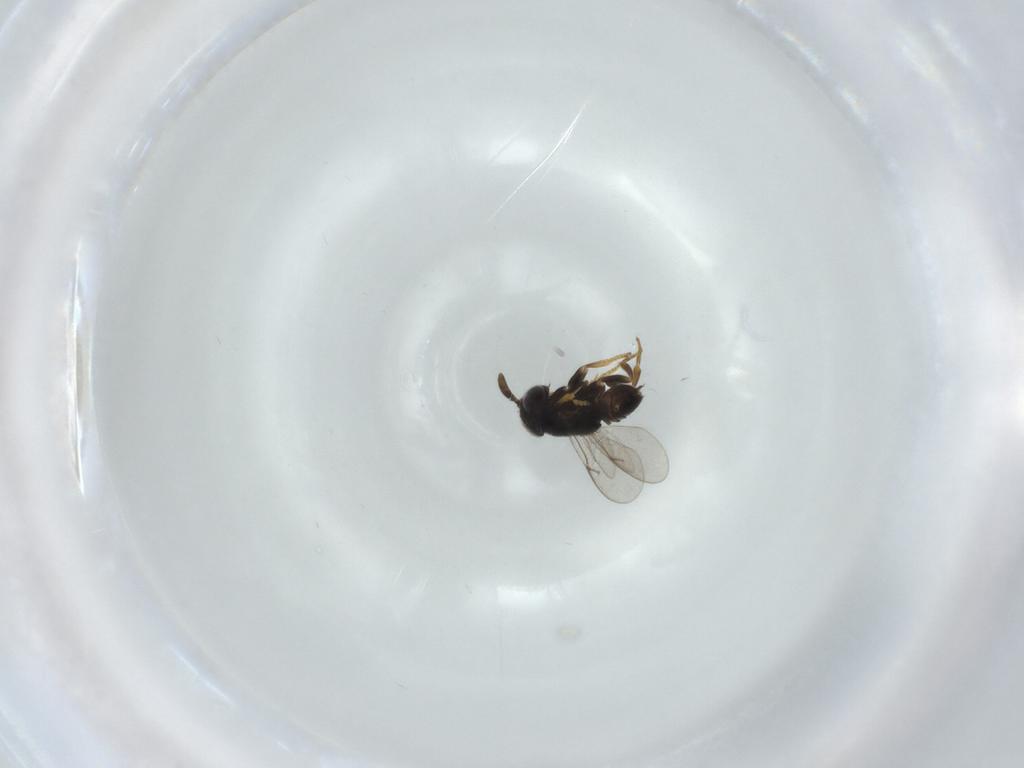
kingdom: Animalia
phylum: Arthropoda
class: Insecta
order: Hymenoptera
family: Encyrtidae
